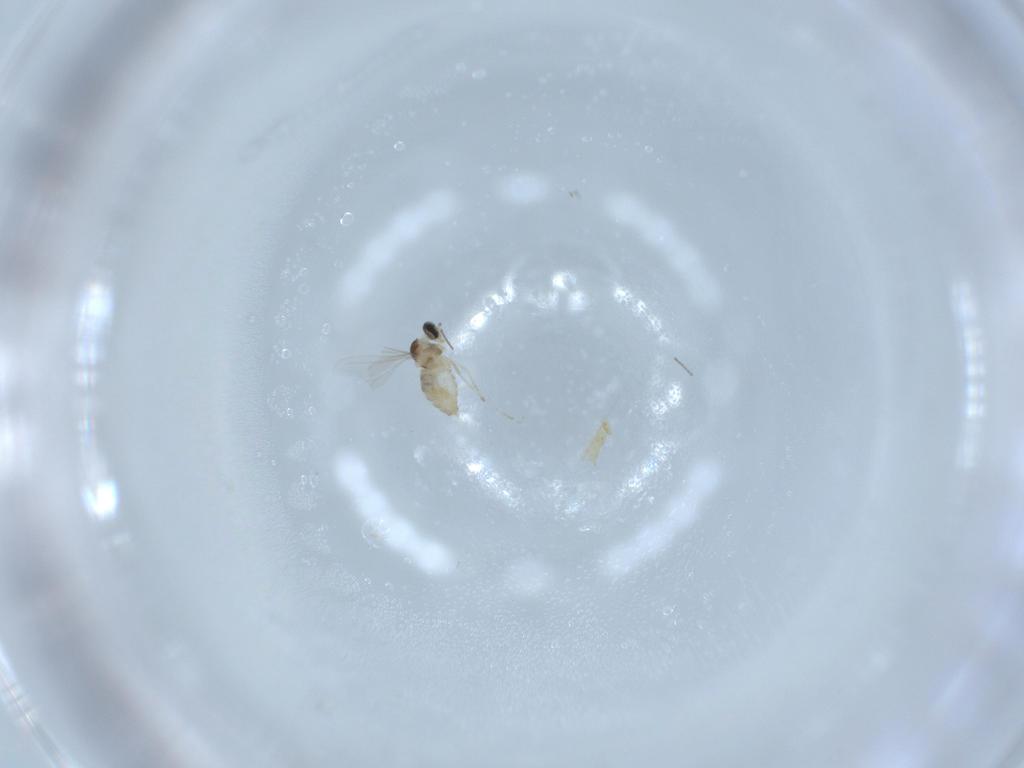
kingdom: Animalia
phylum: Arthropoda
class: Insecta
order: Diptera
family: Cecidomyiidae
